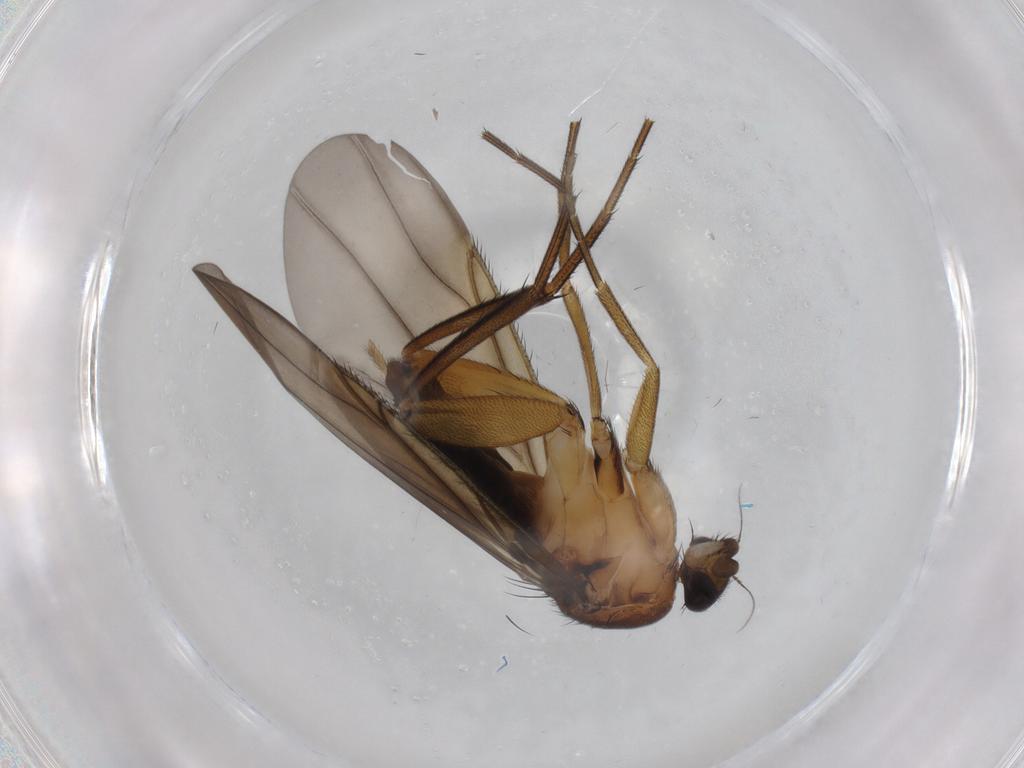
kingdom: Animalia
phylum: Arthropoda
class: Insecta
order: Diptera
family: Phoridae
